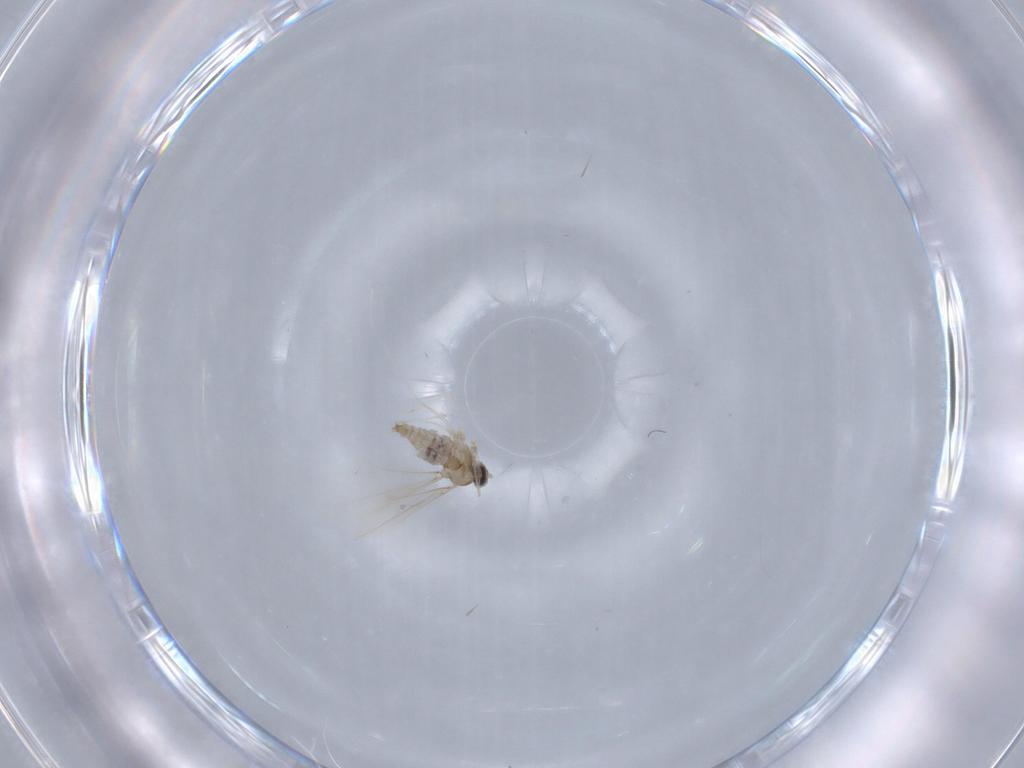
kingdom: Animalia
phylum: Arthropoda
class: Insecta
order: Diptera
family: Cecidomyiidae
